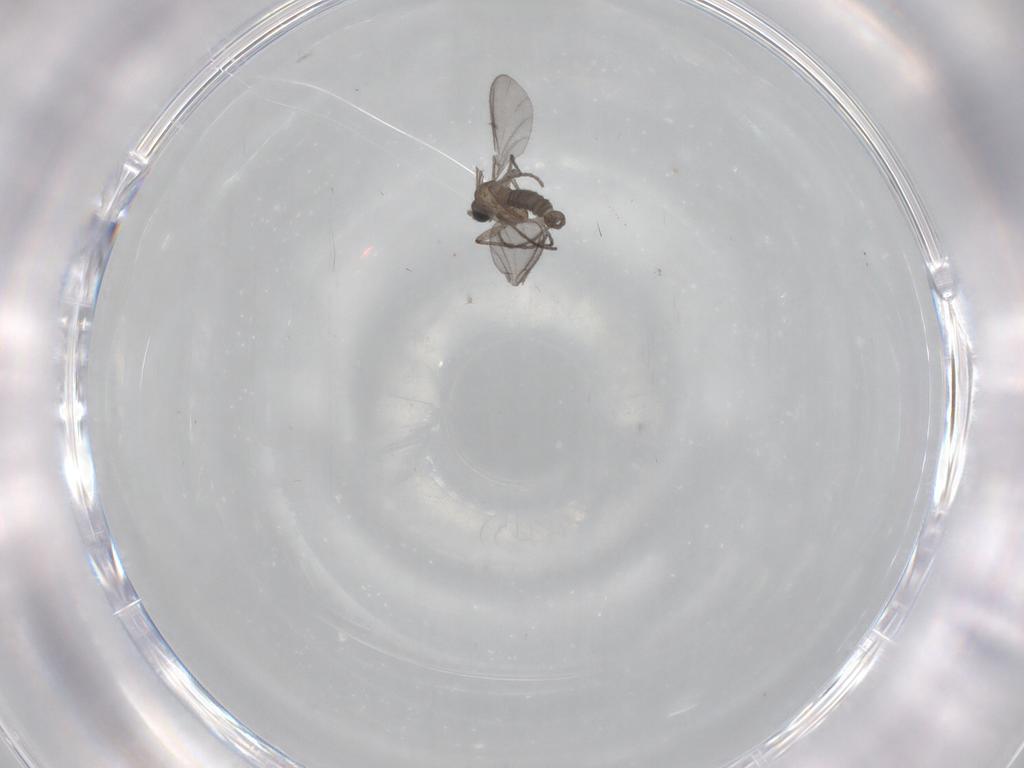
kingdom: Animalia
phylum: Arthropoda
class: Insecta
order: Diptera
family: Sciaridae
